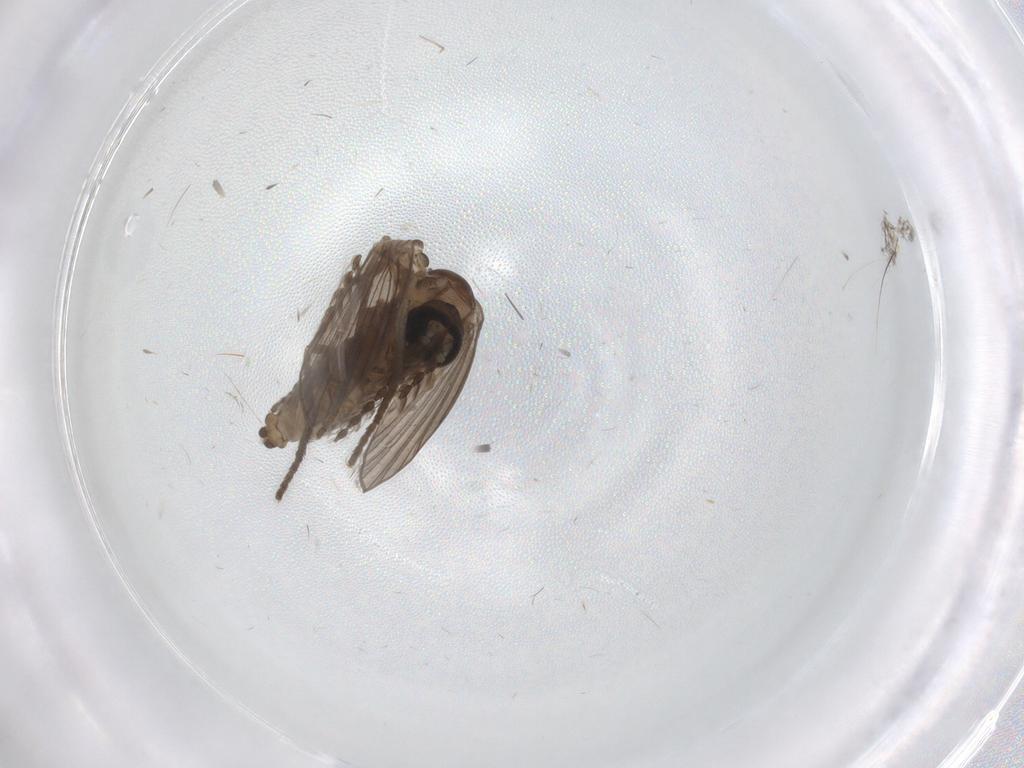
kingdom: Animalia
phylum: Arthropoda
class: Insecta
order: Diptera
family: Psychodidae
